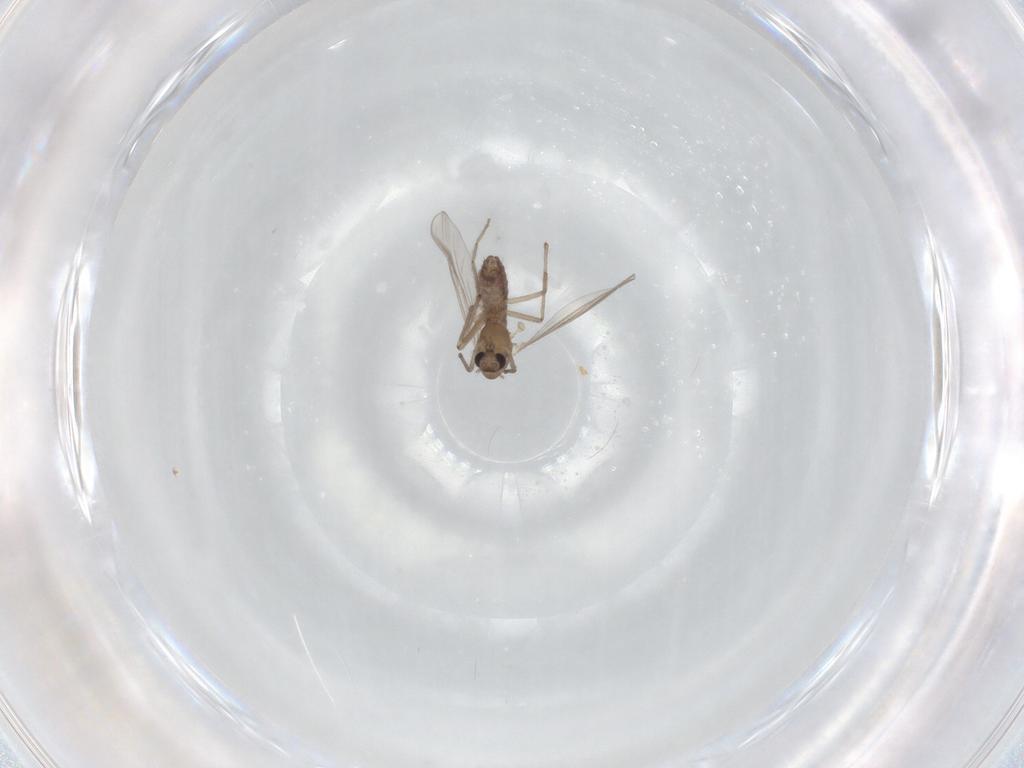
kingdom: Animalia
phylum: Arthropoda
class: Insecta
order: Diptera
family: Chironomidae
